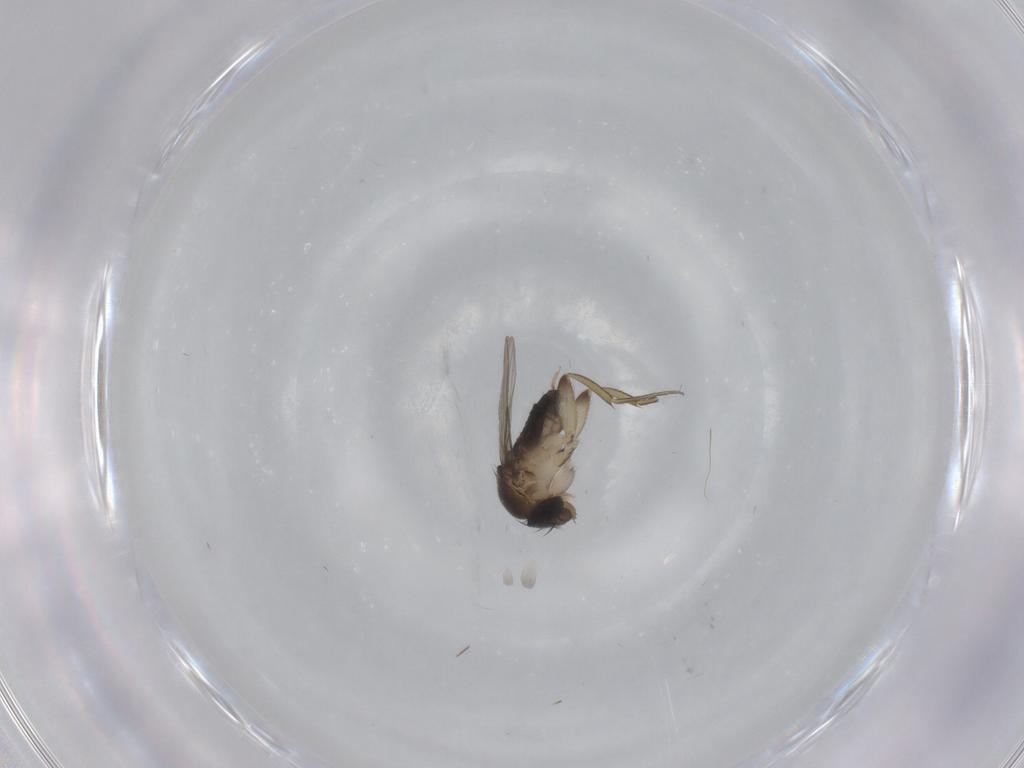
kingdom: Animalia
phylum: Arthropoda
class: Insecta
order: Diptera
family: Phoridae
